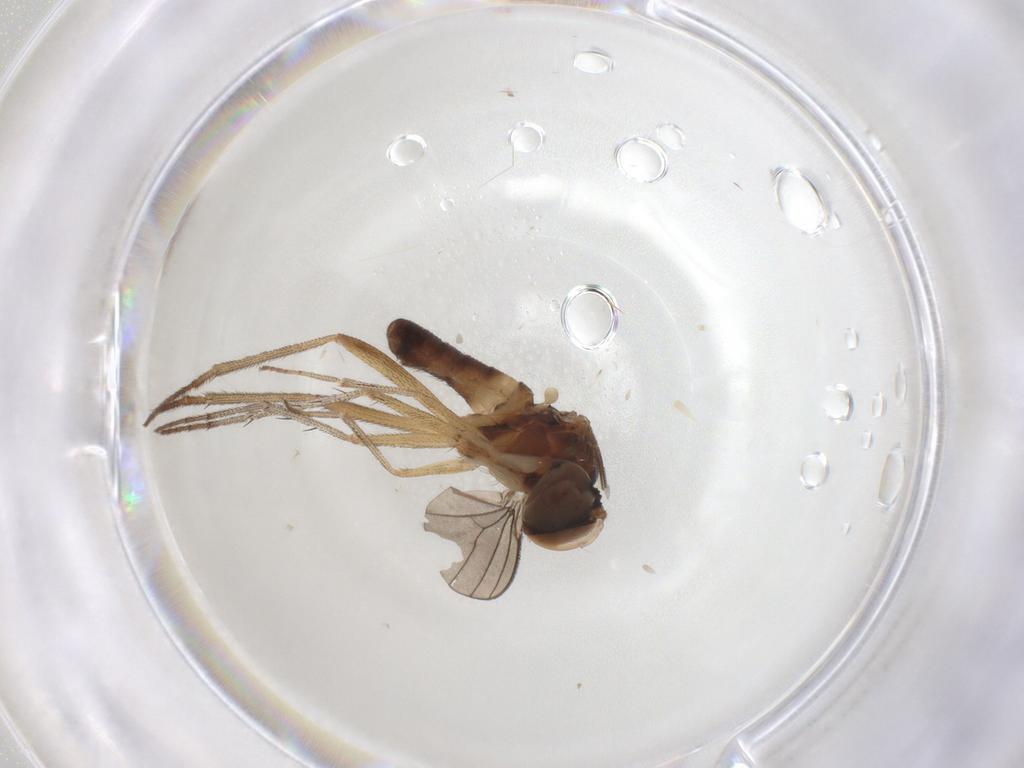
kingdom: Animalia
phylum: Arthropoda
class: Insecta
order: Diptera
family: Dolichopodidae
